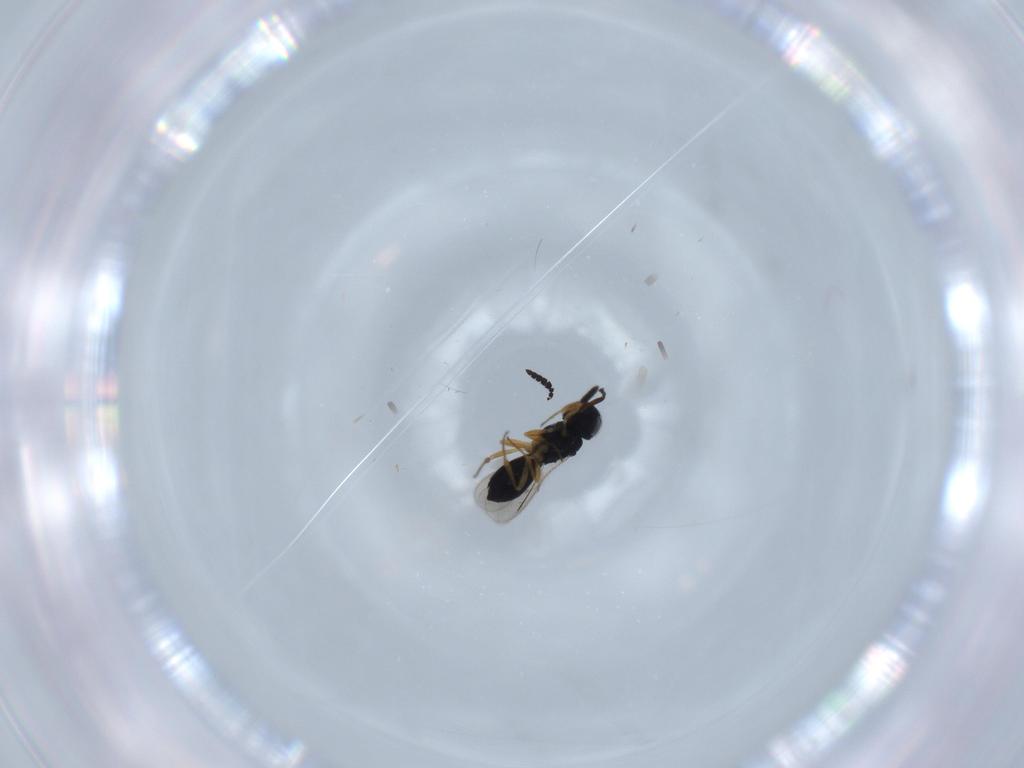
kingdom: Animalia
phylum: Arthropoda
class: Insecta
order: Hymenoptera
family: Scelionidae
